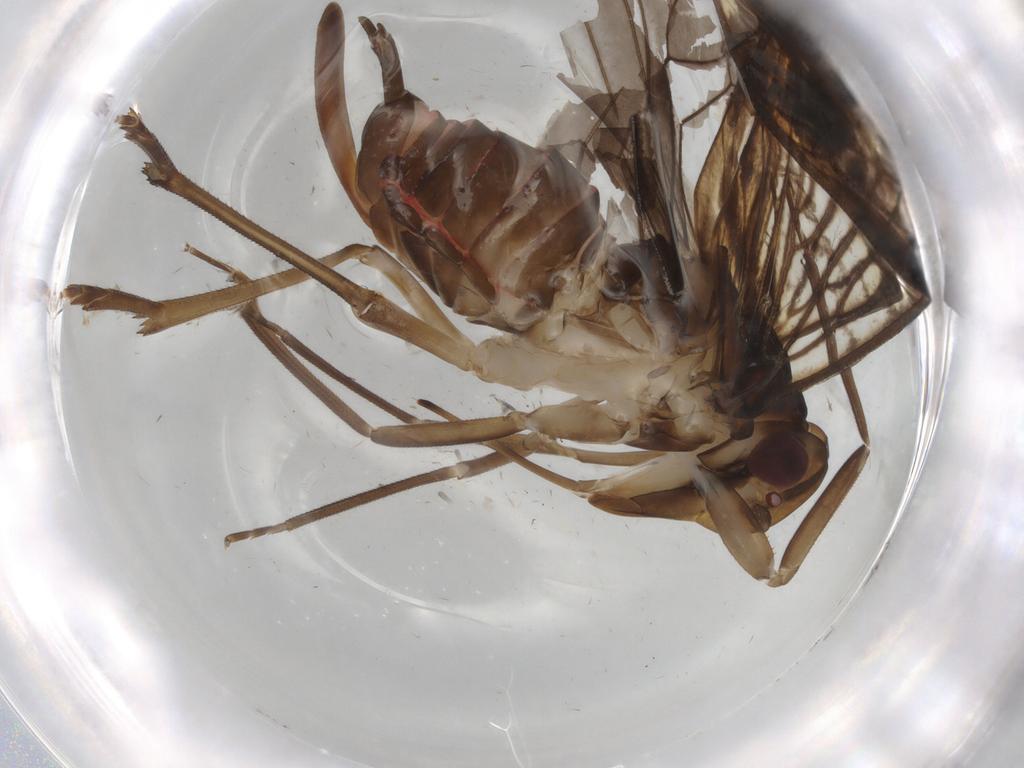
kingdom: Animalia
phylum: Arthropoda
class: Insecta
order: Hemiptera
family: Cixiidae
